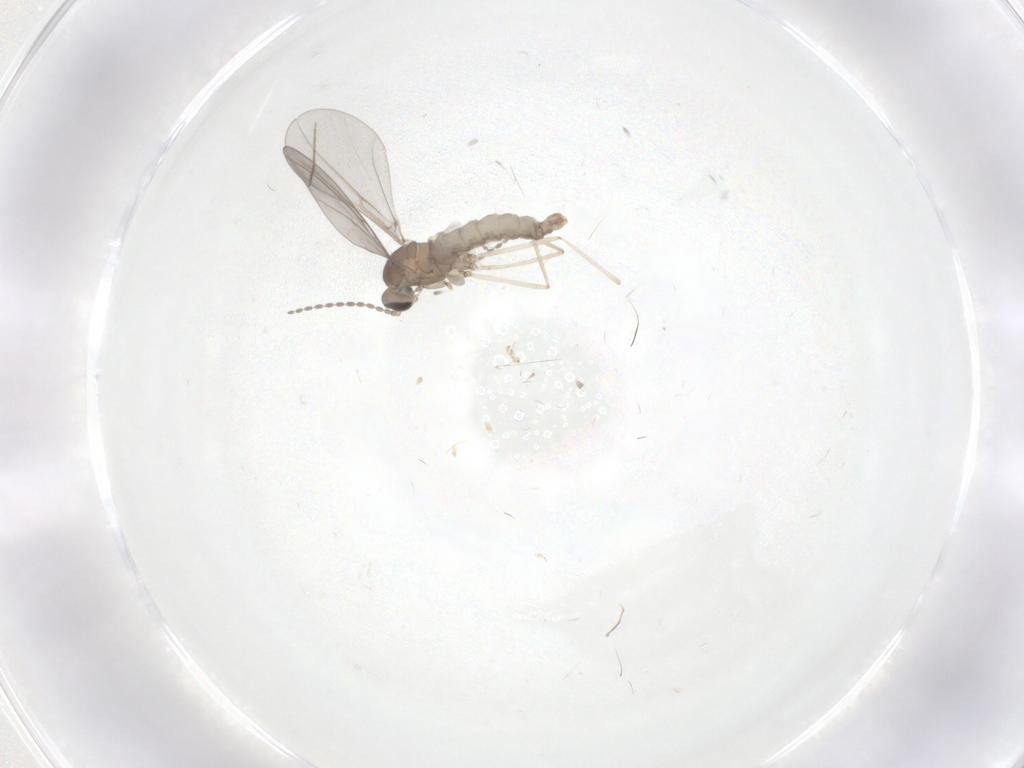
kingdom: Animalia
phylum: Arthropoda
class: Insecta
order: Diptera
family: Cecidomyiidae
